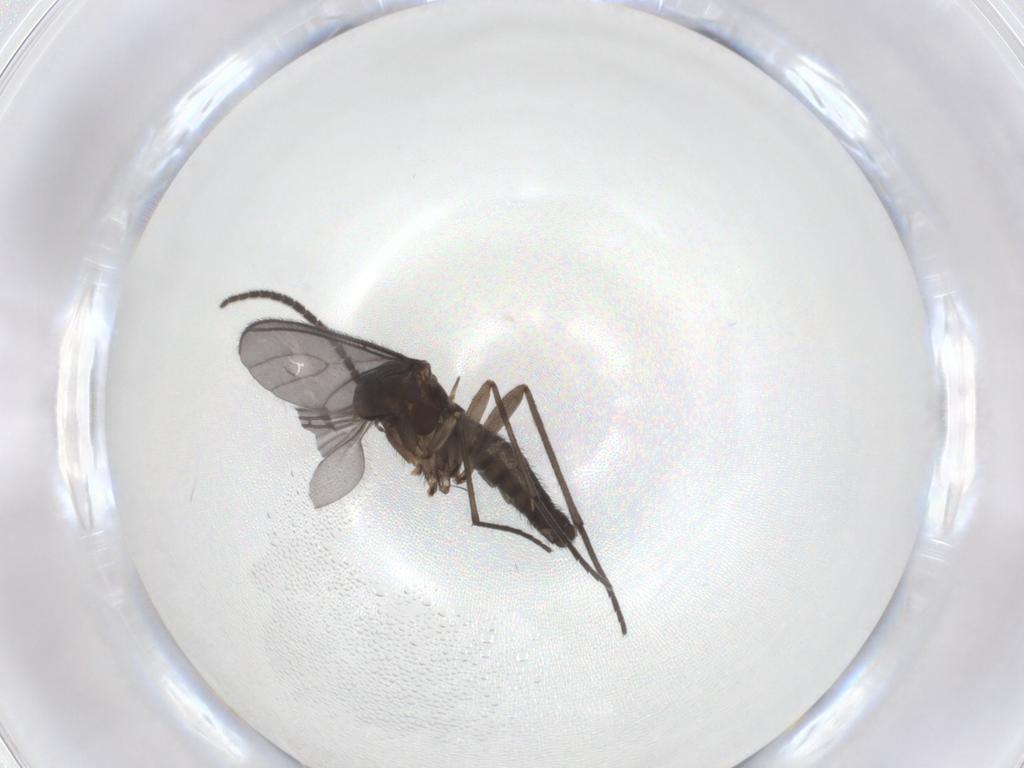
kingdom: Animalia
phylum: Arthropoda
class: Insecta
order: Diptera
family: Sciaridae
